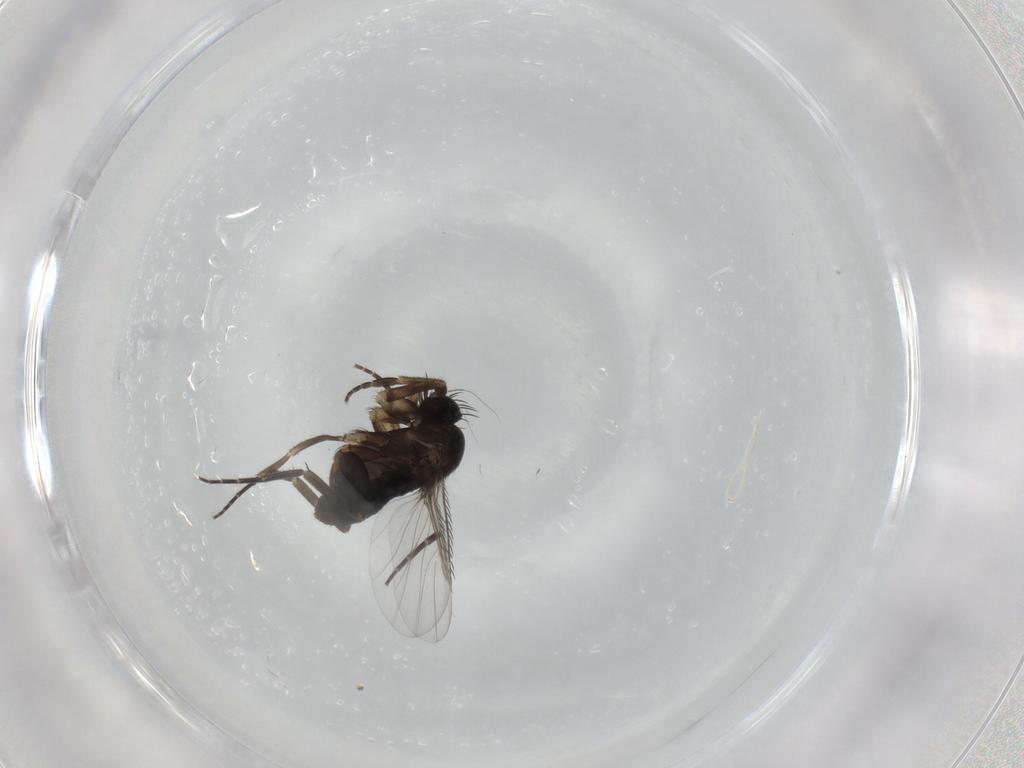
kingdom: Animalia
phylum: Arthropoda
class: Insecta
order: Diptera
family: Phoridae
